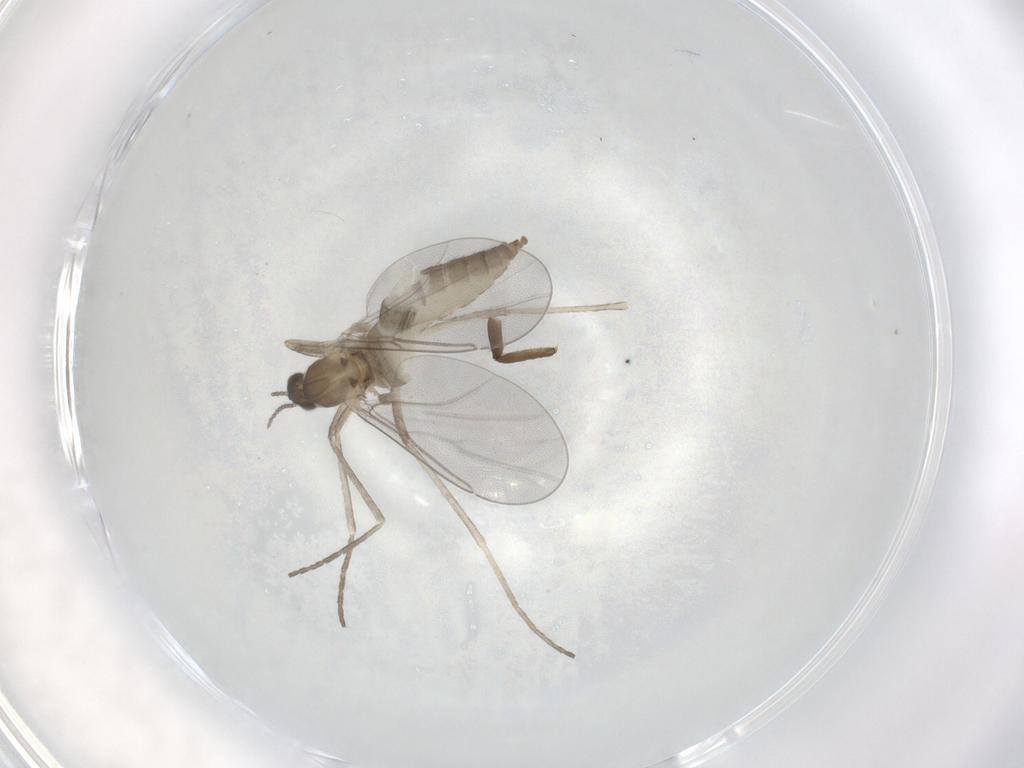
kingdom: Animalia
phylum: Arthropoda
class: Insecta
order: Diptera
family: Cecidomyiidae
